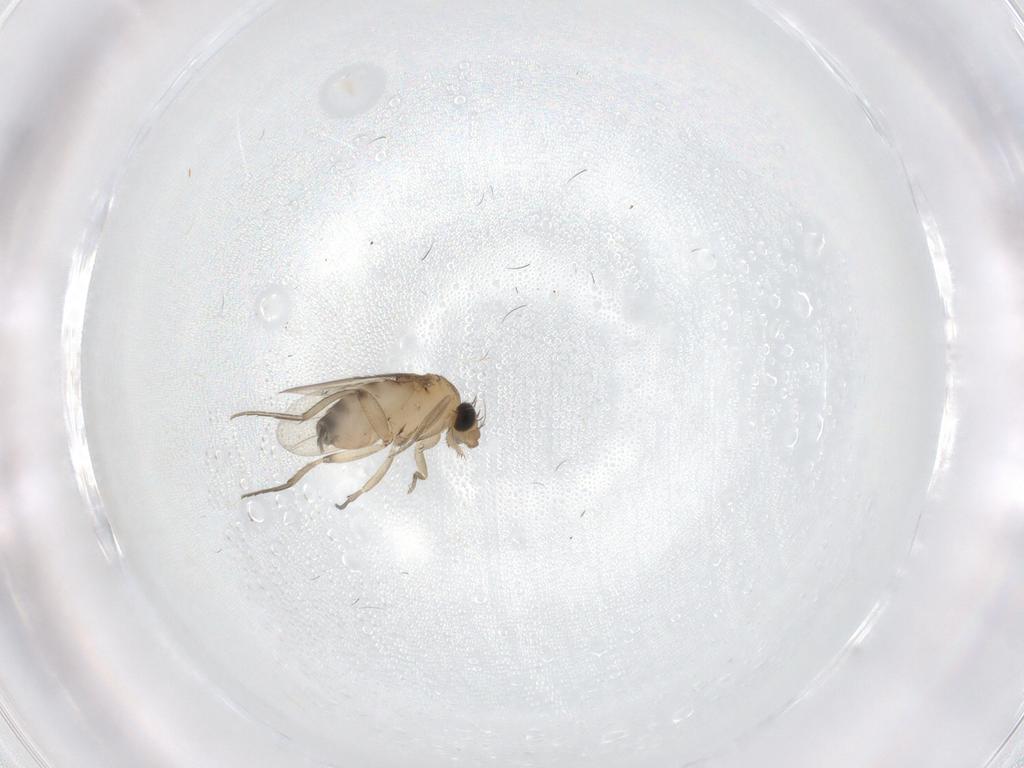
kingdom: Animalia
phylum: Arthropoda
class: Insecta
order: Diptera
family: Phoridae
